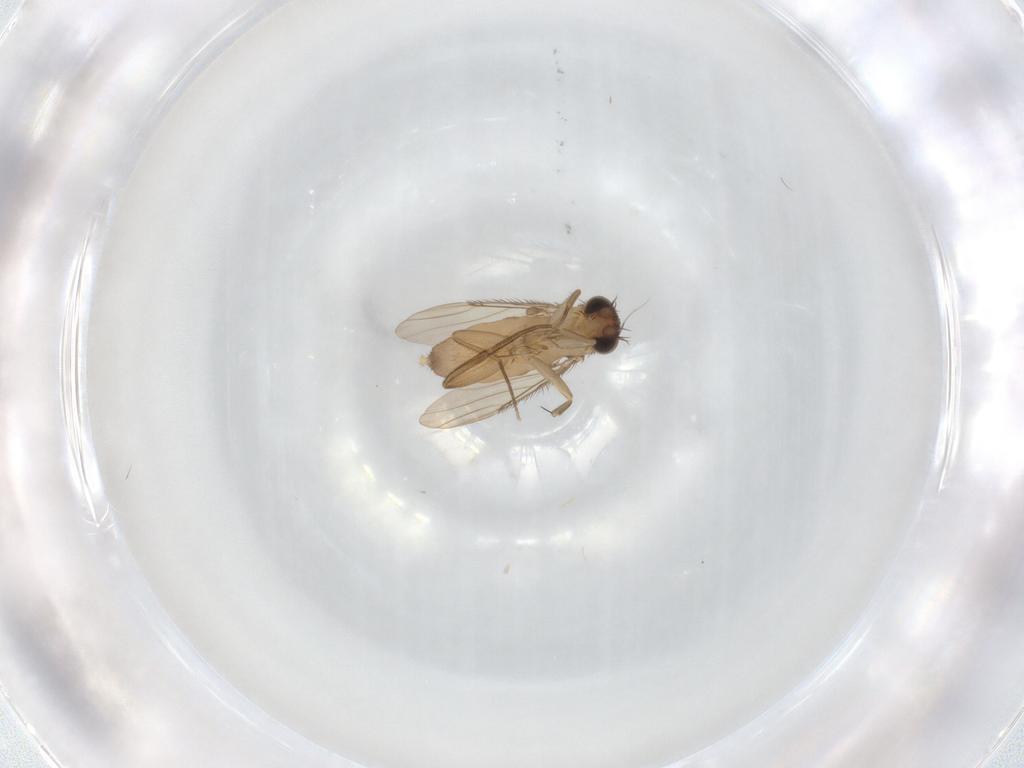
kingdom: Animalia
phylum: Arthropoda
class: Insecta
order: Diptera
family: Phoridae
